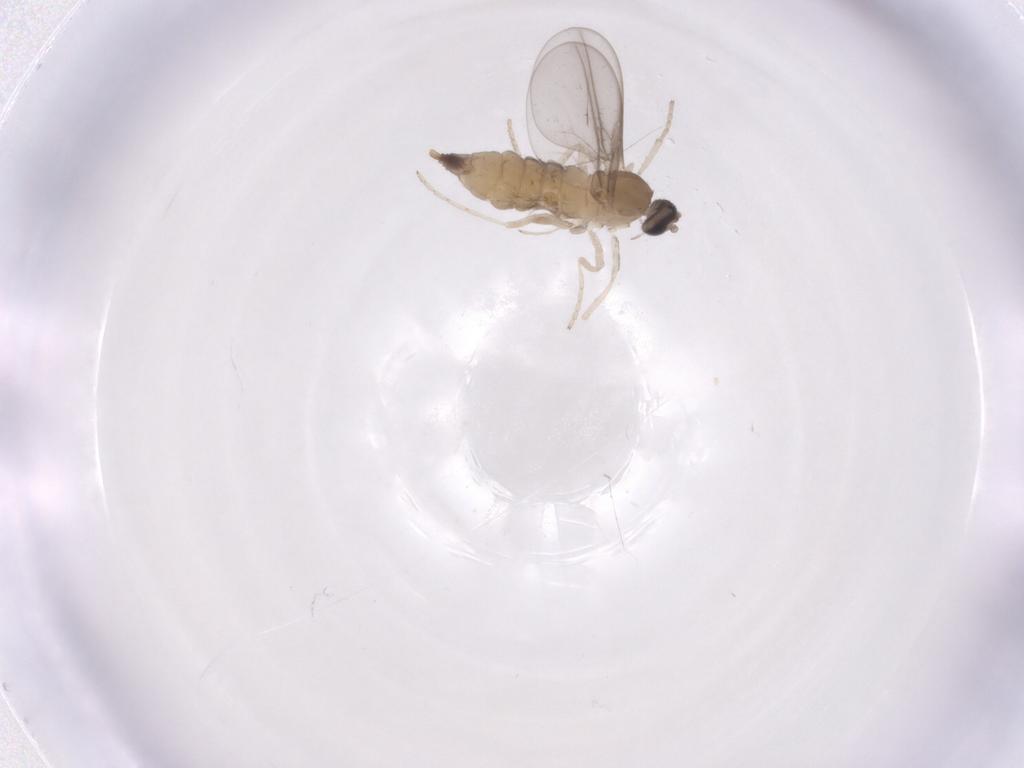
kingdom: Animalia
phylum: Arthropoda
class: Insecta
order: Diptera
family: Cecidomyiidae
